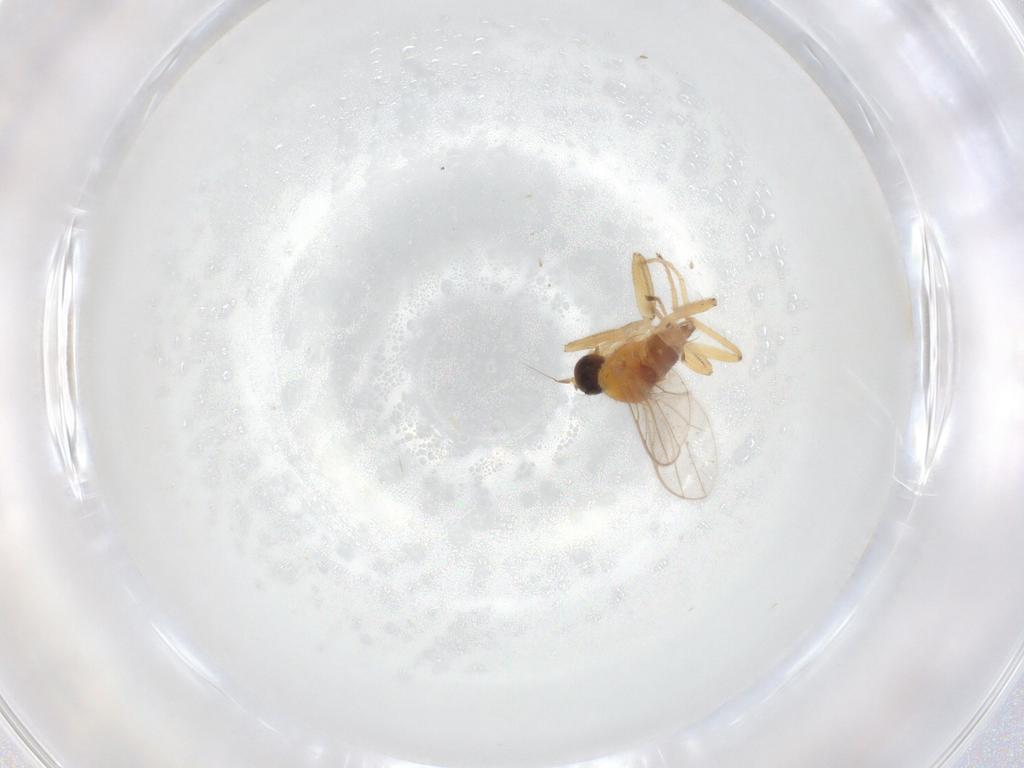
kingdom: Animalia
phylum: Arthropoda
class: Insecta
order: Diptera
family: Ceratopogonidae
